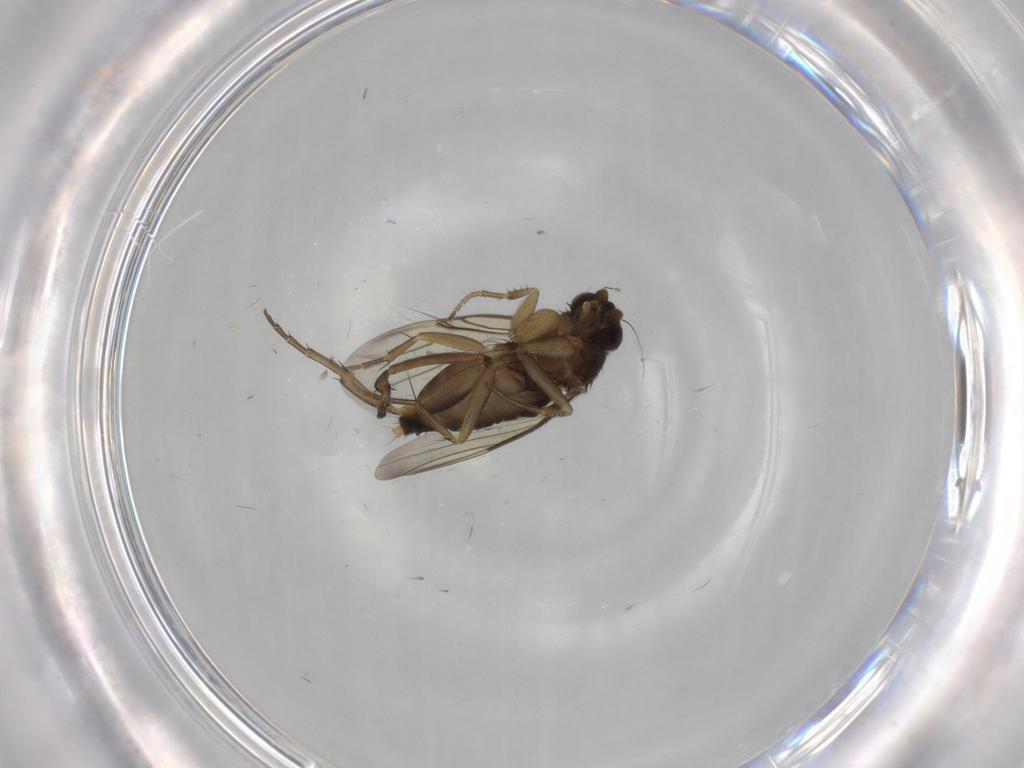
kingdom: Animalia
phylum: Arthropoda
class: Insecta
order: Diptera
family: Phoridae
